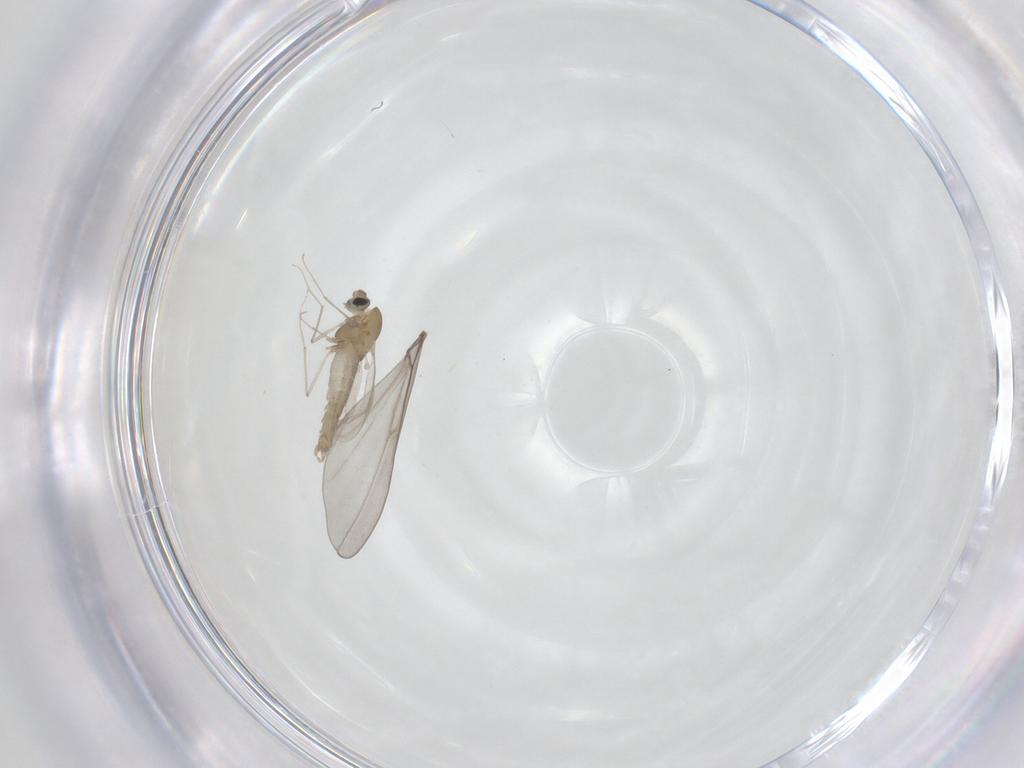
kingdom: Animalia
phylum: Arthropoda
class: Insecta
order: Diptera
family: Cecidomyiidae
